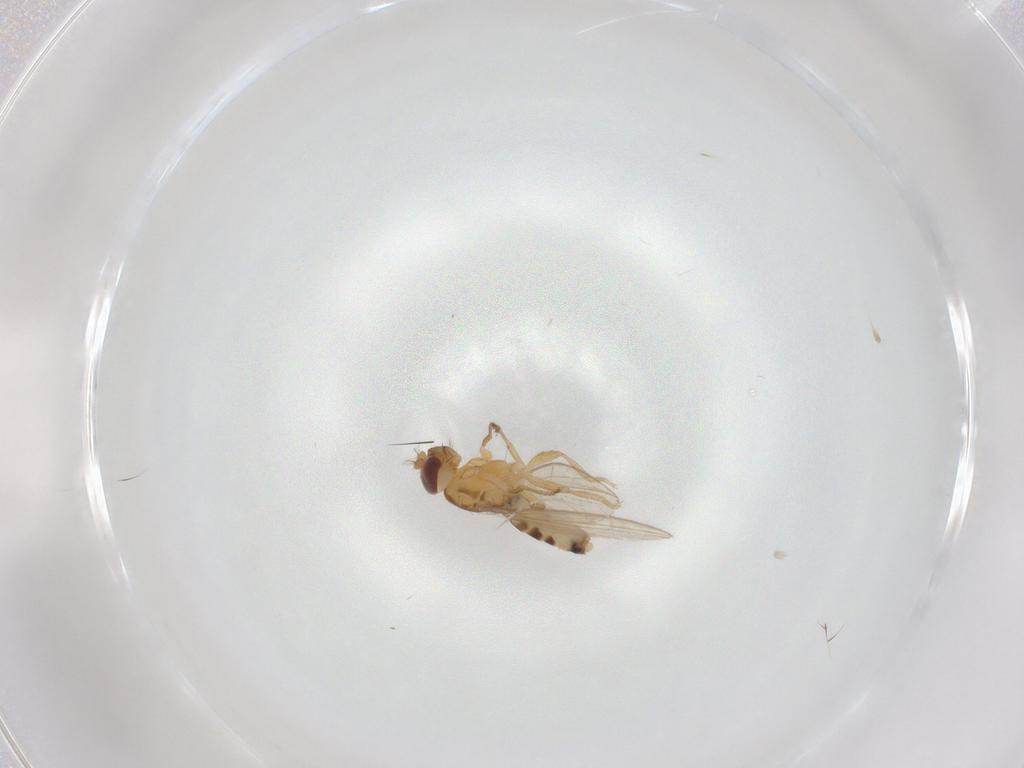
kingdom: Animalia
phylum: Arthropoda
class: Insecta
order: Diptera
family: Periscelididae
